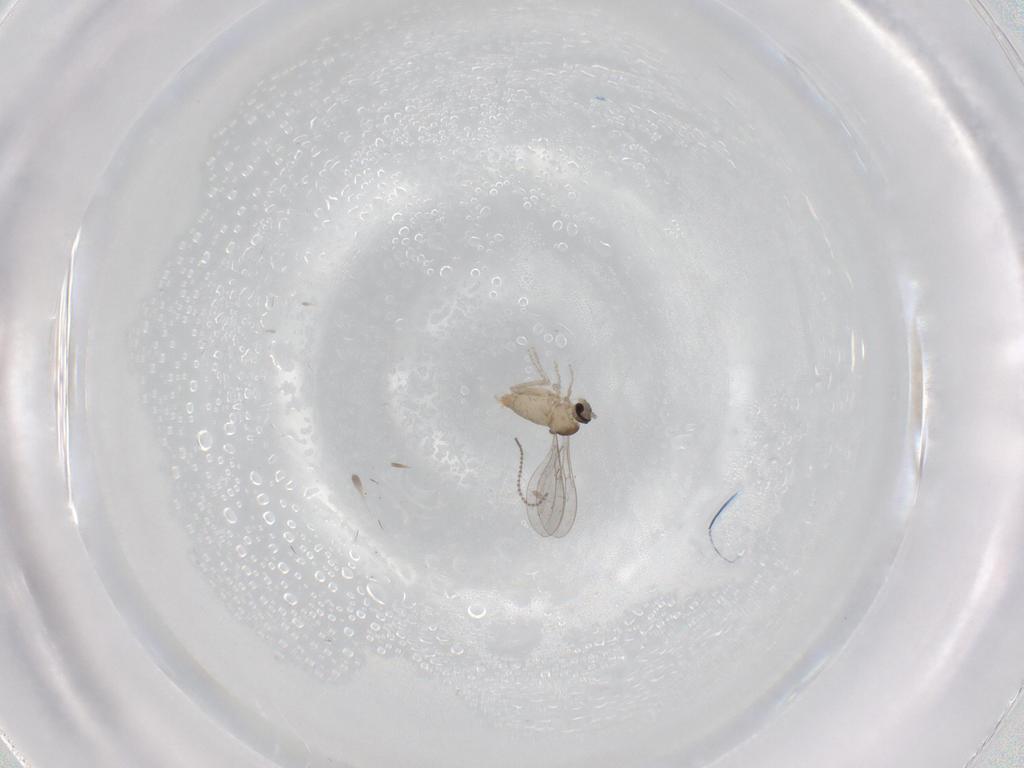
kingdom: Animalia
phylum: Arthropoda
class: Insecta
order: Diptera
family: Cecidomyiidae
